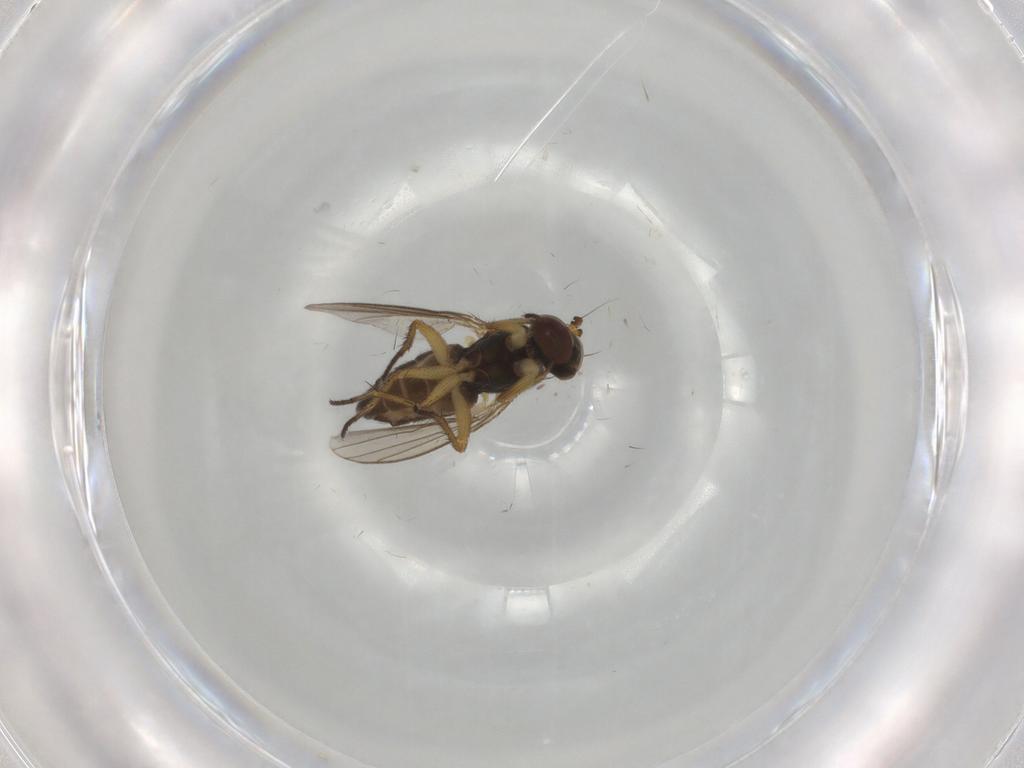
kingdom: Animalia
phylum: Arthropoda
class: Insecta
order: Diptera
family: Dolichopodidae
